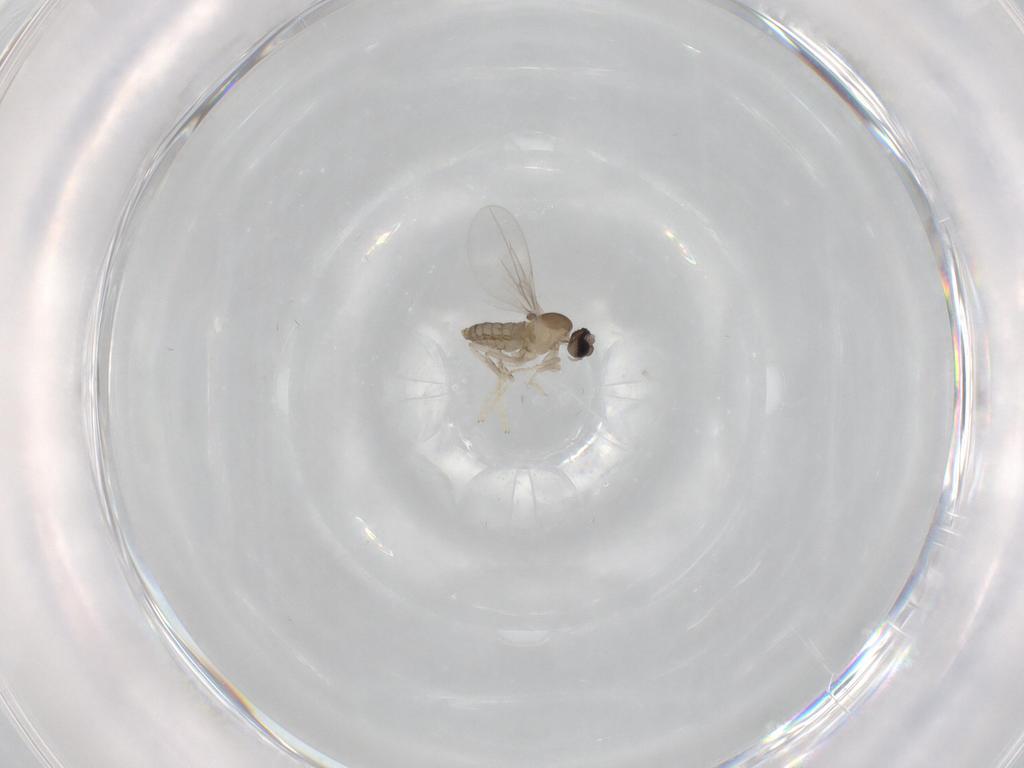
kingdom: Animalia
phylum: Arthropoda
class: Insecta
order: Diptera
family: Cecidomyiidae
